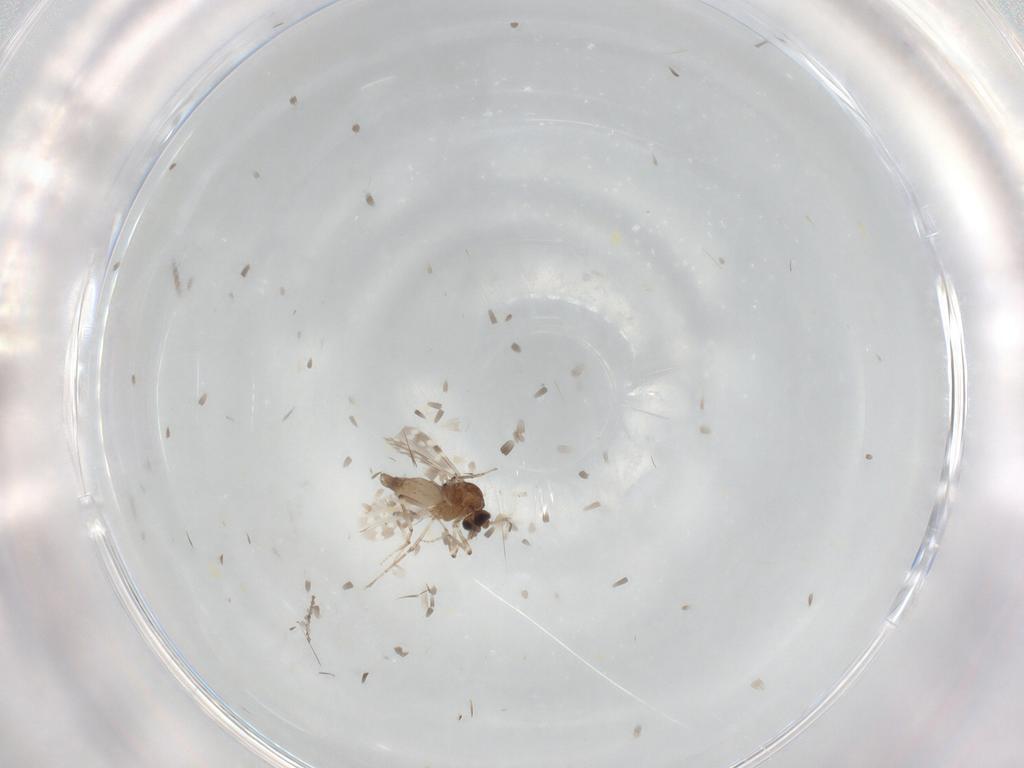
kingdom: Animalia
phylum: Arthropoda
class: Insecta
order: Diptera
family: Ceratopogonidae
